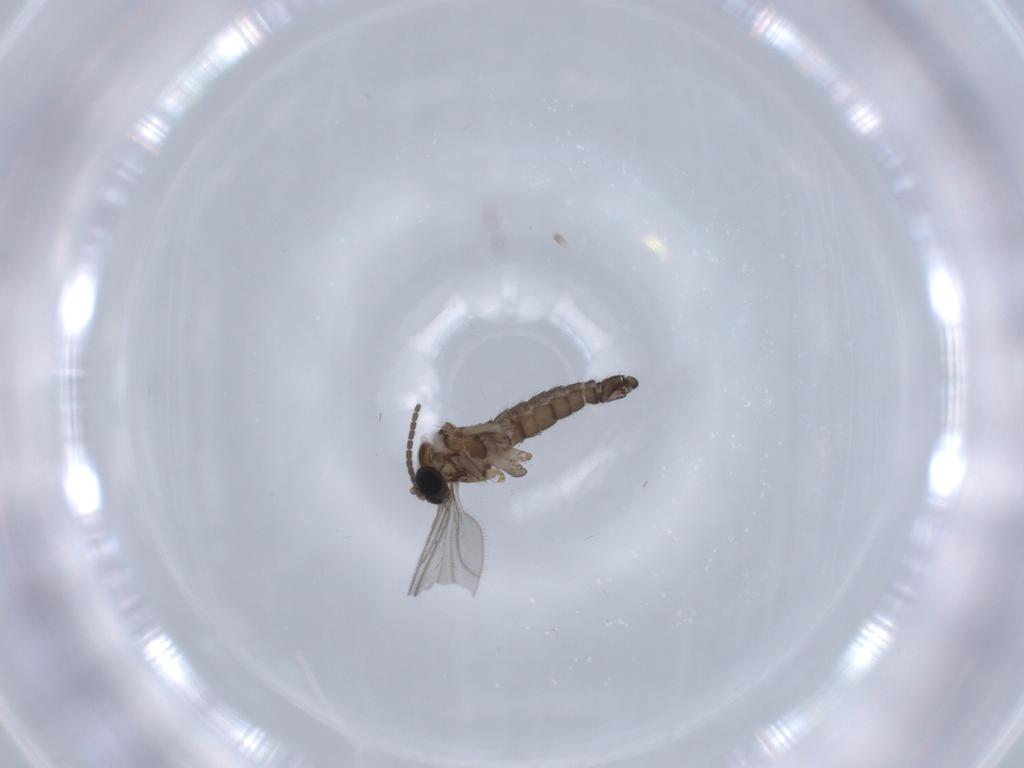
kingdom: Animalia
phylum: Arthropoda
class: Insecta
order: Diptera
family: Sciaridae
